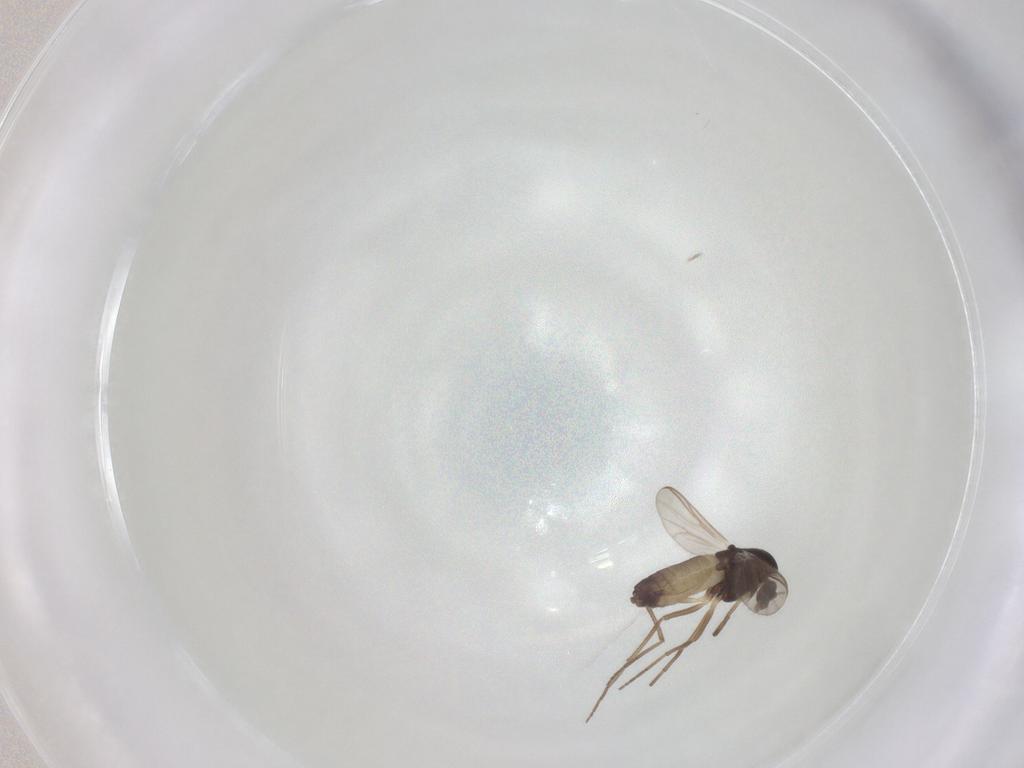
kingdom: Animalia
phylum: Arthropoda
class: Insecta
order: Diptera
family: Chironomidae
